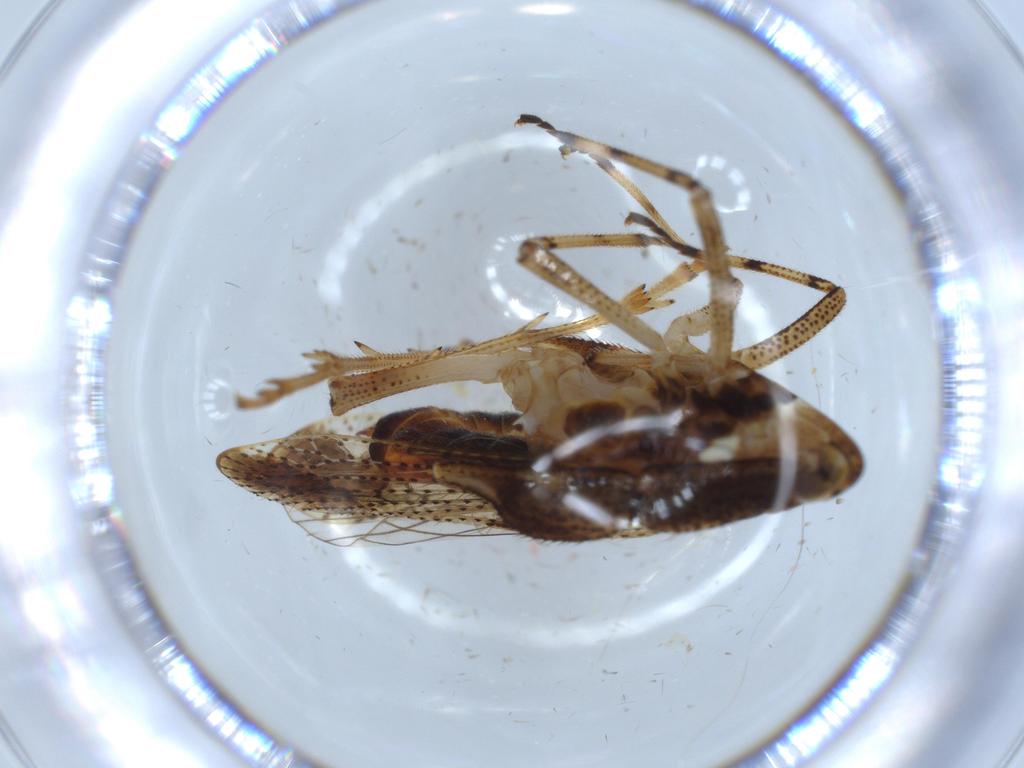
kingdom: Animalia
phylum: Arthropoda
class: Insecta
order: Hemiptera
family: Delphacidae
